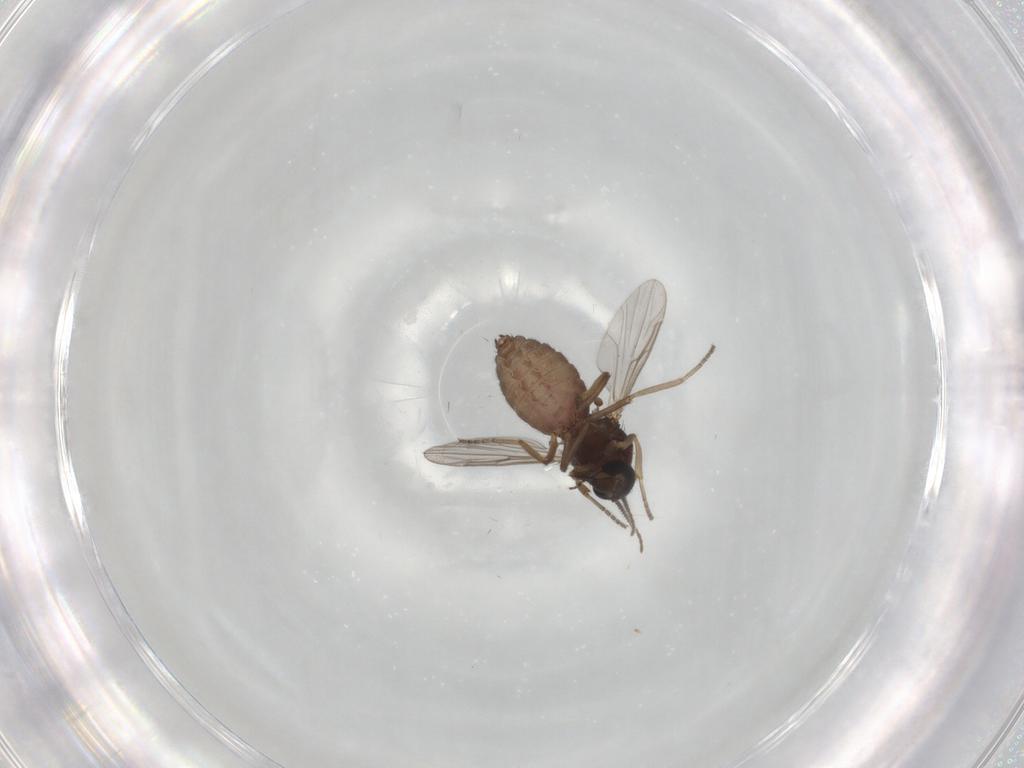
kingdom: Animalia
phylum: Arthropoda
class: Insecta
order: Diptera
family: Ceratopogonidae
